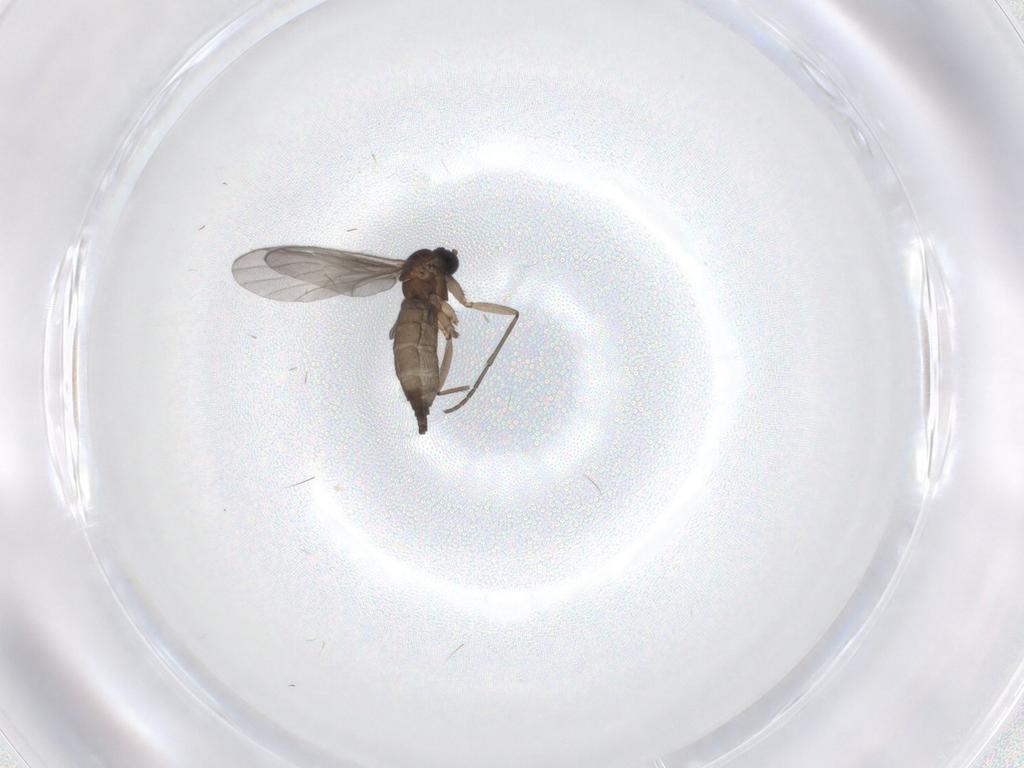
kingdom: Animalia
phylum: Arthropoda
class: Insecta
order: Diptera
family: Sciaridae
